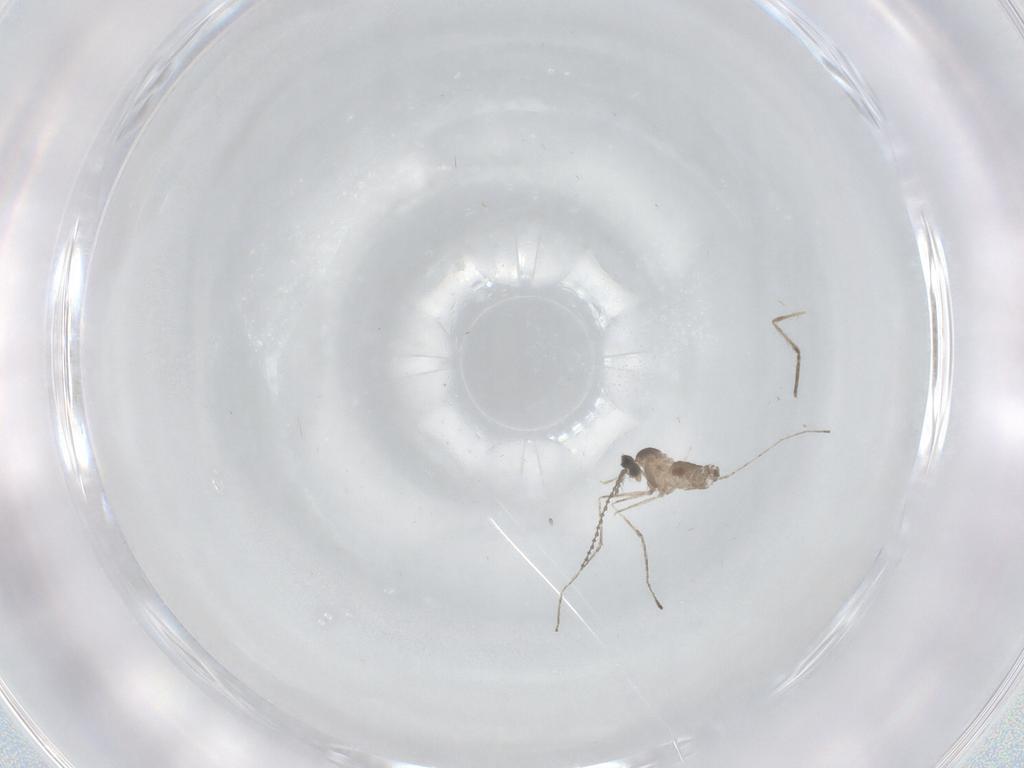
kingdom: Animalia
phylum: Arthropoda
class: Insecta
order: Diptera
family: Cecidomyiidae
